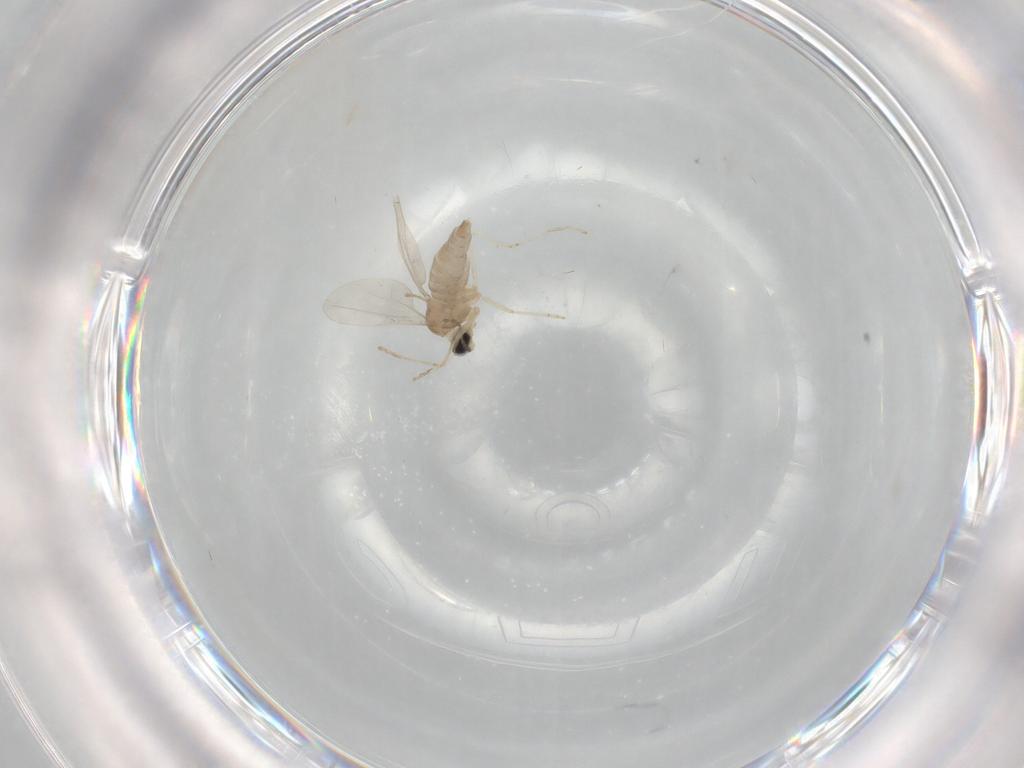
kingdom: Animalia
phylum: Arthropoda
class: Insecta
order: Diptera
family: Cecidomyiidae
